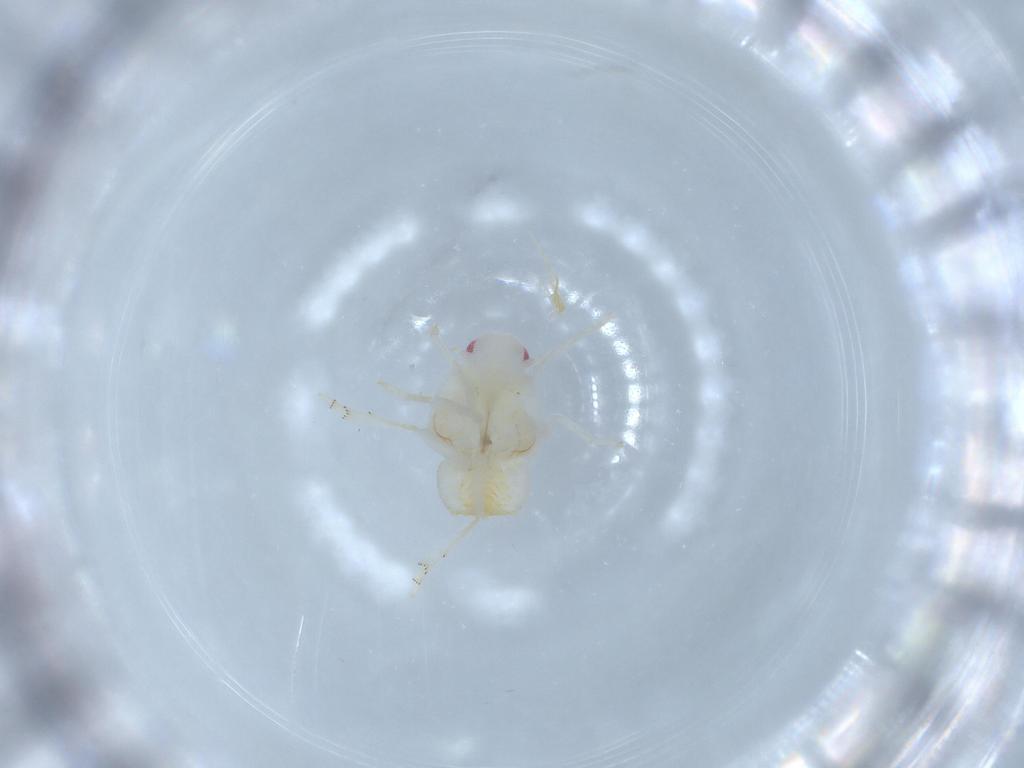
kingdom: Animalia
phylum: Arthropoda
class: Insecta
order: Hemiptera
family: Flatidae
